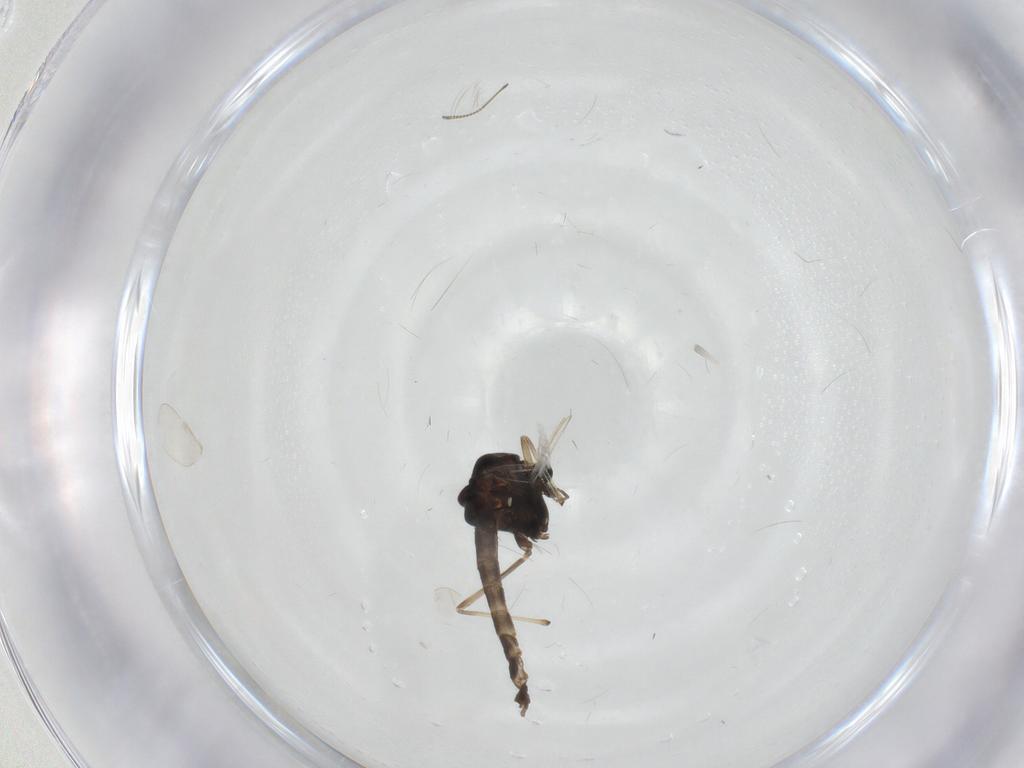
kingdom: Animalia
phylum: Arthropoda
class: Insecta
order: Diptera
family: Chironomidae
